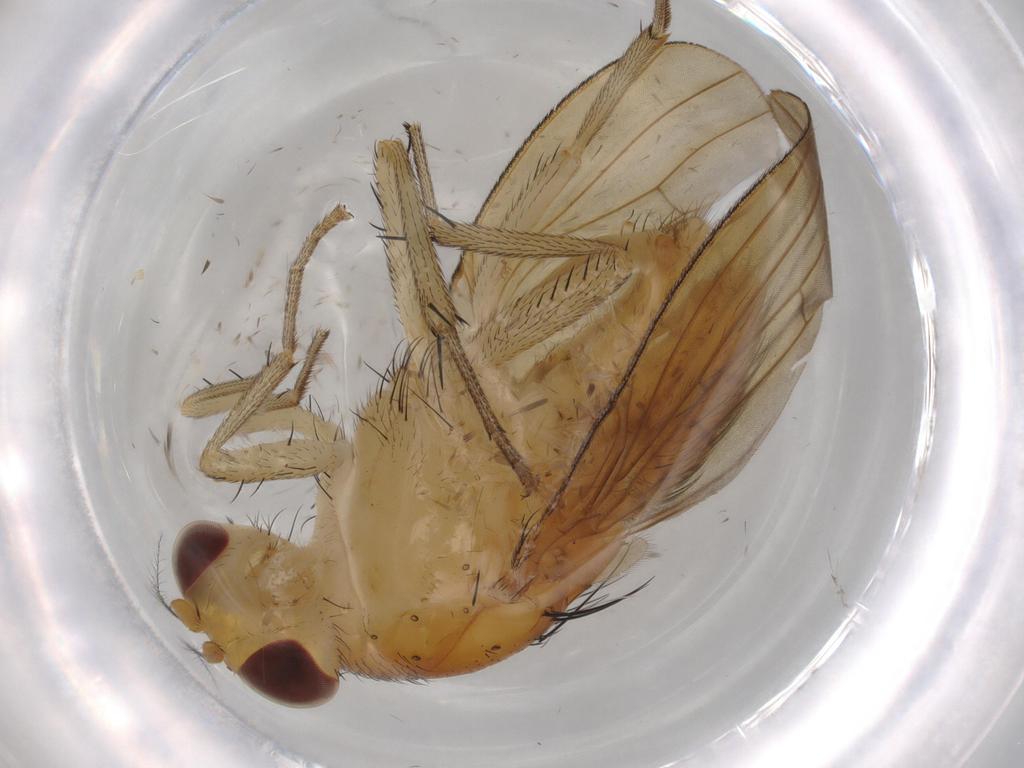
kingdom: Animalia
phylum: Arthropoda
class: Insecta
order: Diptera
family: Dolichopodidae
